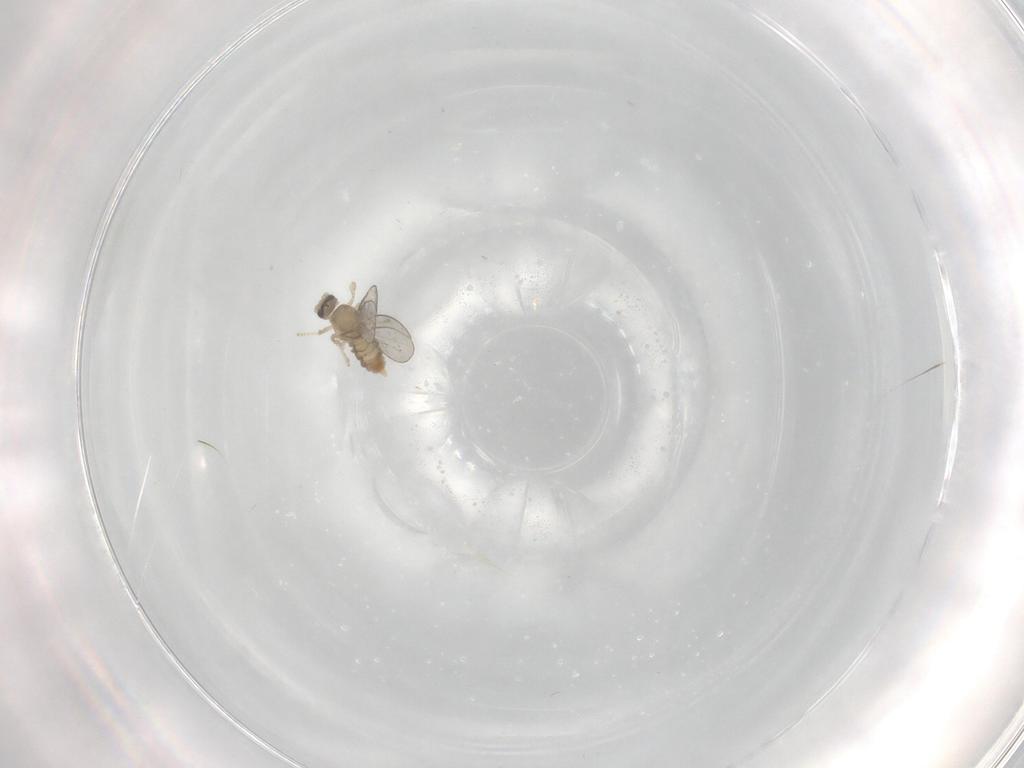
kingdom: Animalia
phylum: Arthropoda
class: Insecta
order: Diptera
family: Cecidomyiidae
